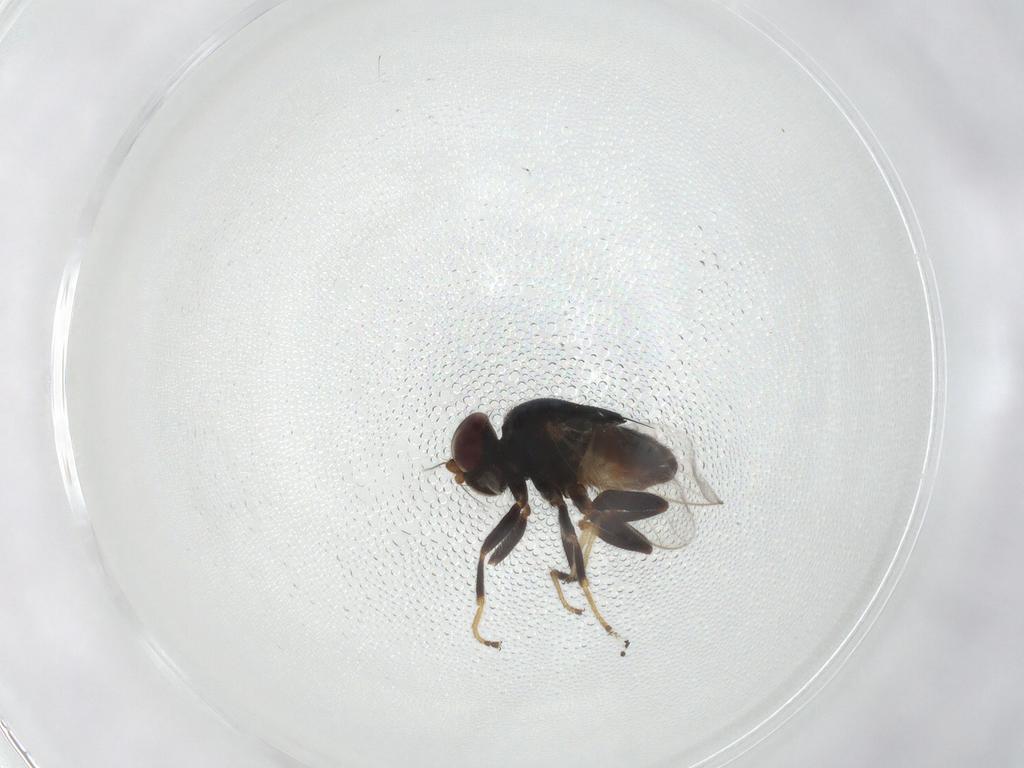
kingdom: Animalia
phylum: Arthropoda
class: Insecta
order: Diptera
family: Chloropidae
